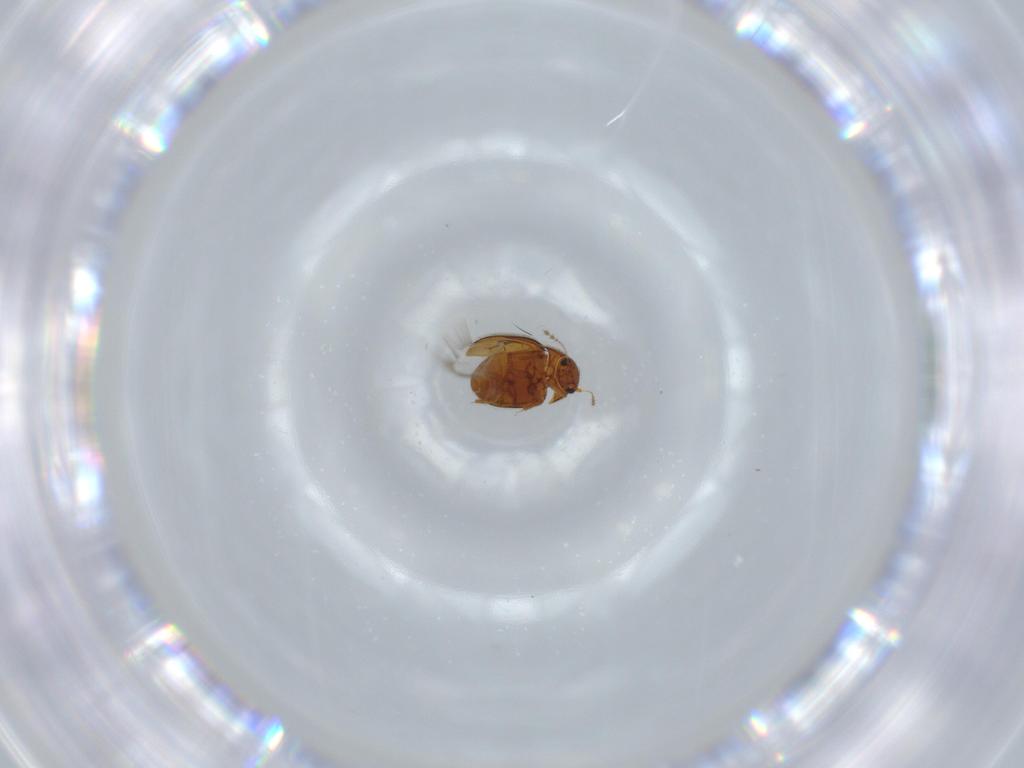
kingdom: Animalia
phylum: Arthropoda
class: Insecta
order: Coleoptera
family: Ptiliidae
